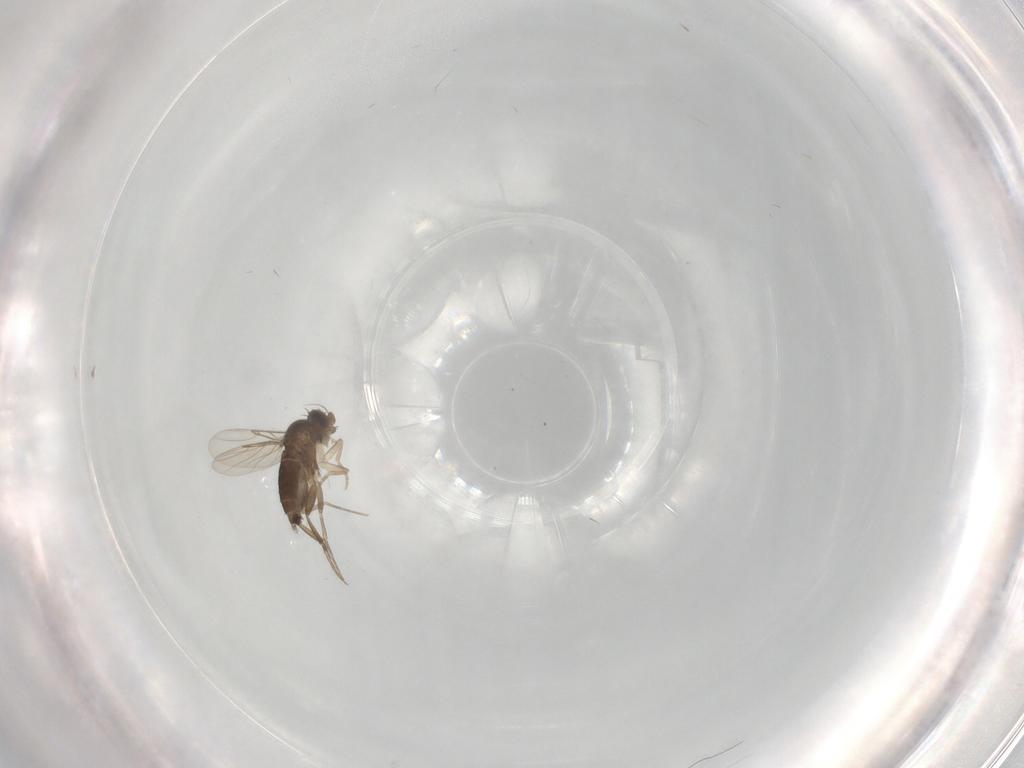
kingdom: Animalia
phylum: Arthropoda
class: Insecta
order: Diptera
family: Phoridae
